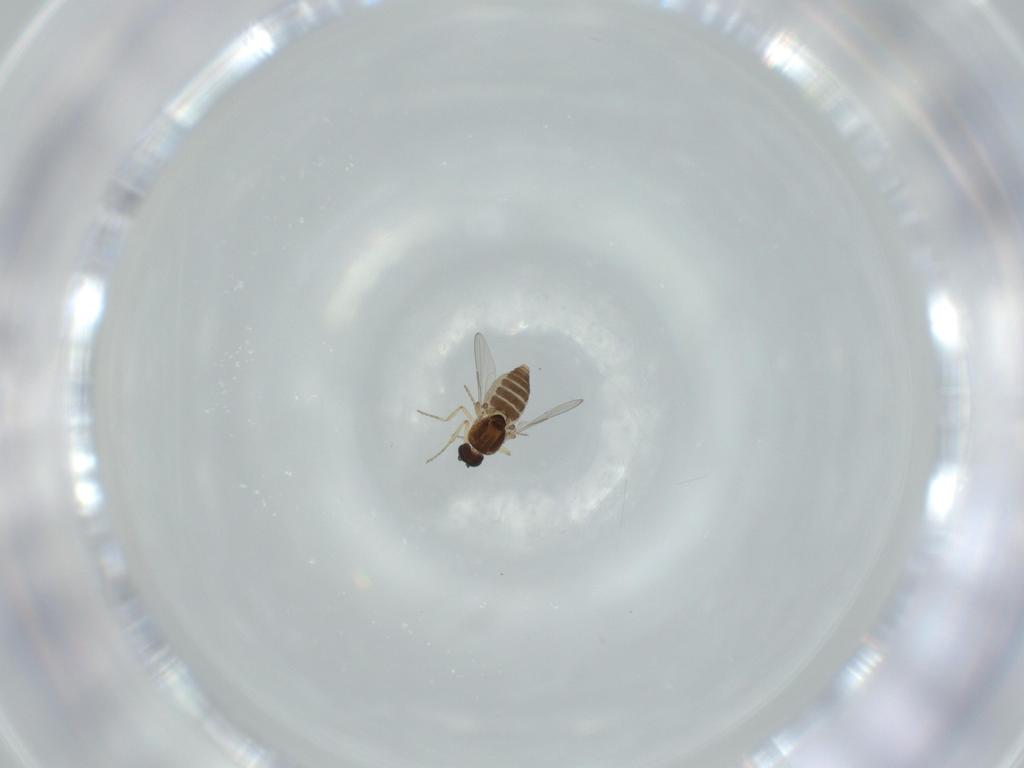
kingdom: Animalia
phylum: Arthropoda
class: Insecta
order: Diptera
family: Ceratopogonidae
